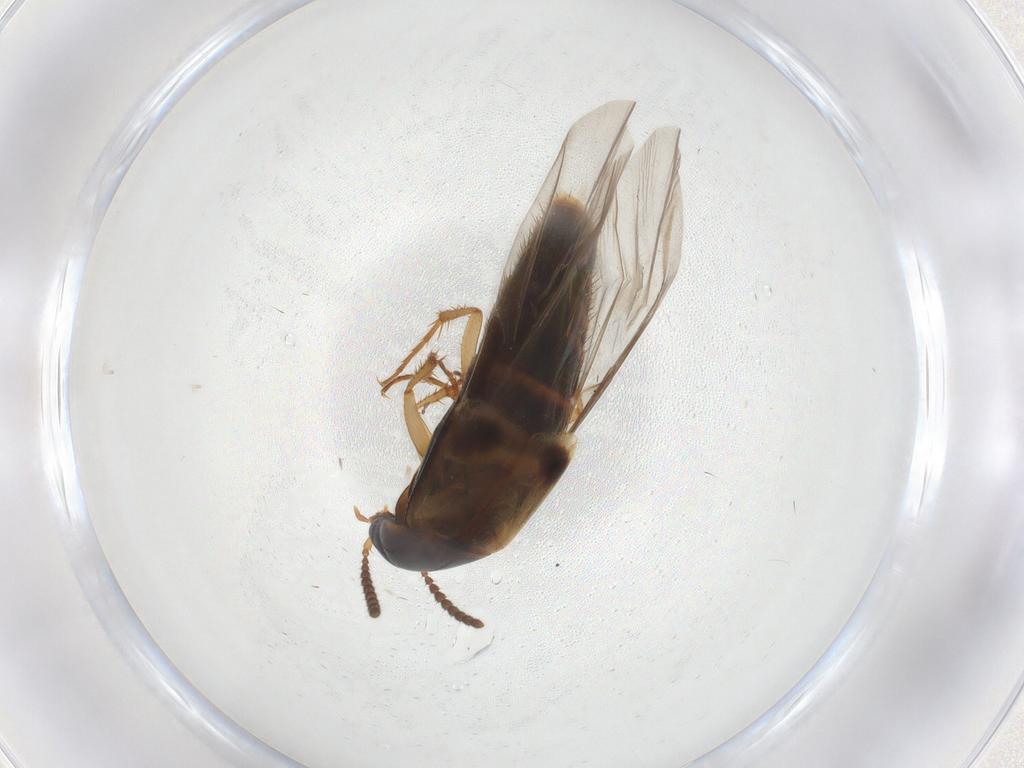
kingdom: Animalia
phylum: Arthropoda
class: Insecta
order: Coleoptera
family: Staphylinidae
